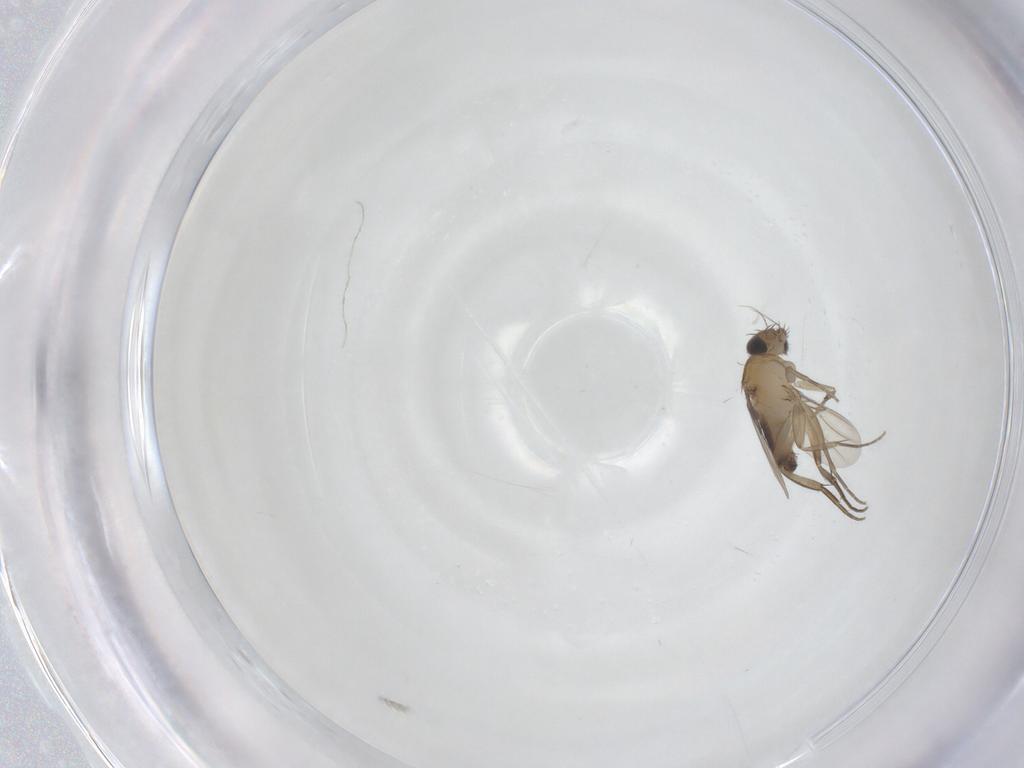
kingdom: Animalia
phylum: Arthropoda
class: Insecta
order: Diptera
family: Phoridae
